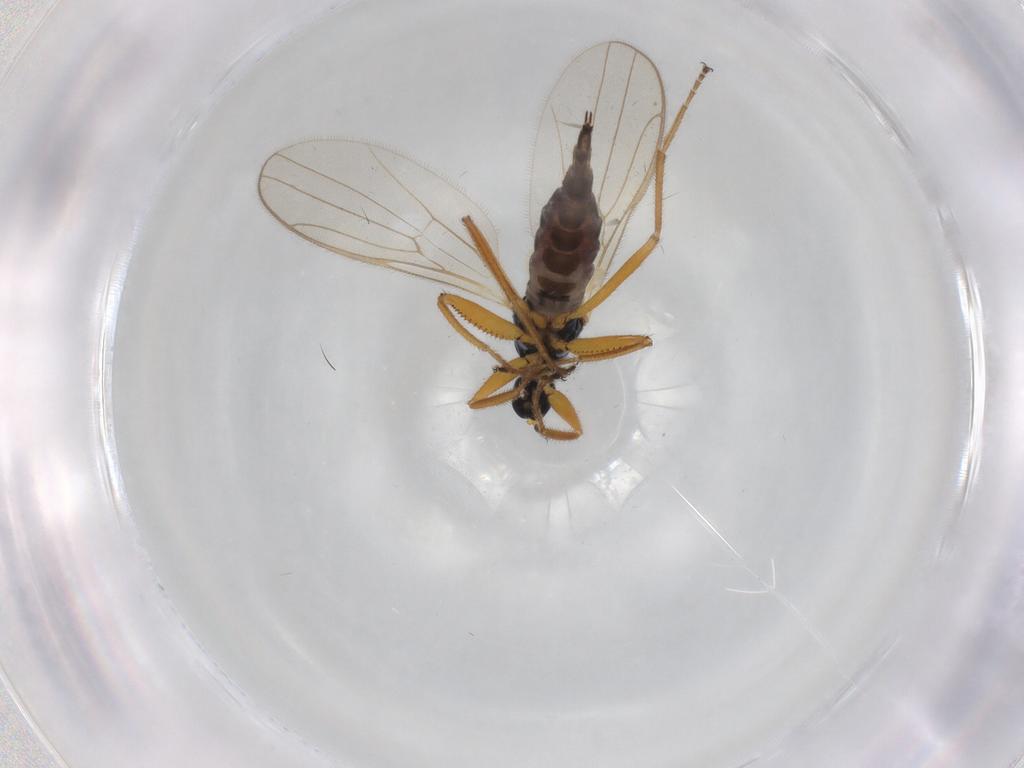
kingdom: Animalia
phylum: Arthropoda
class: Insecta
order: Diptera
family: Hybotidae
